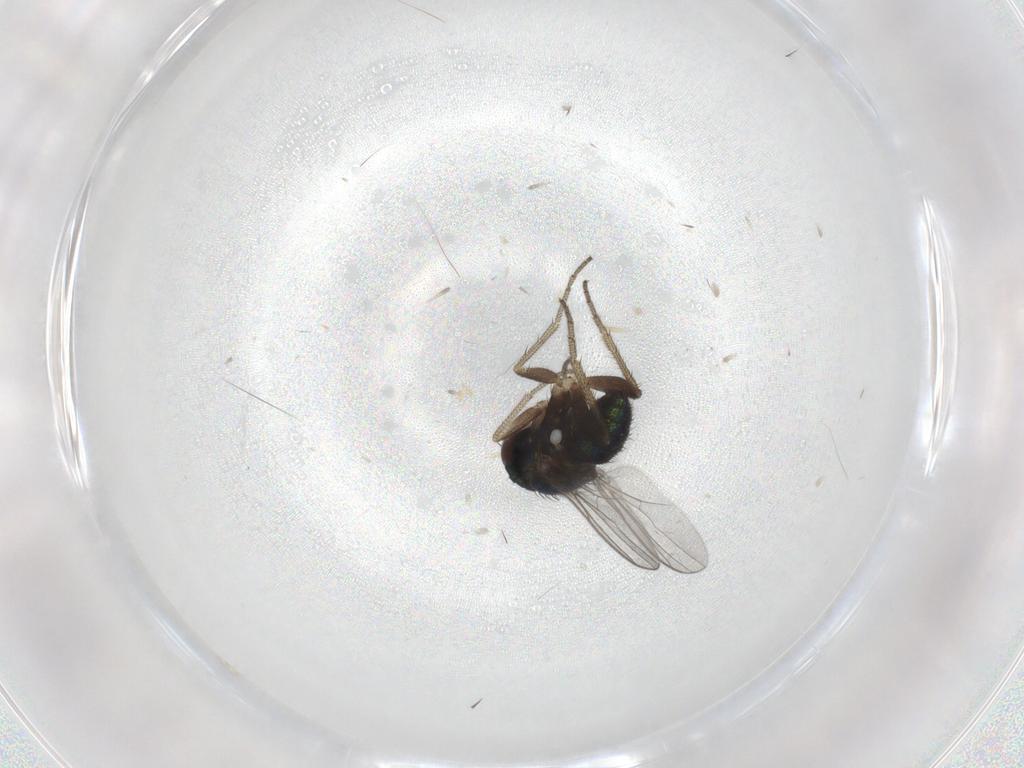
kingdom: Animalia
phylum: Arthropoda
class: Insecta
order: Diptera
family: Dolichopodidae
